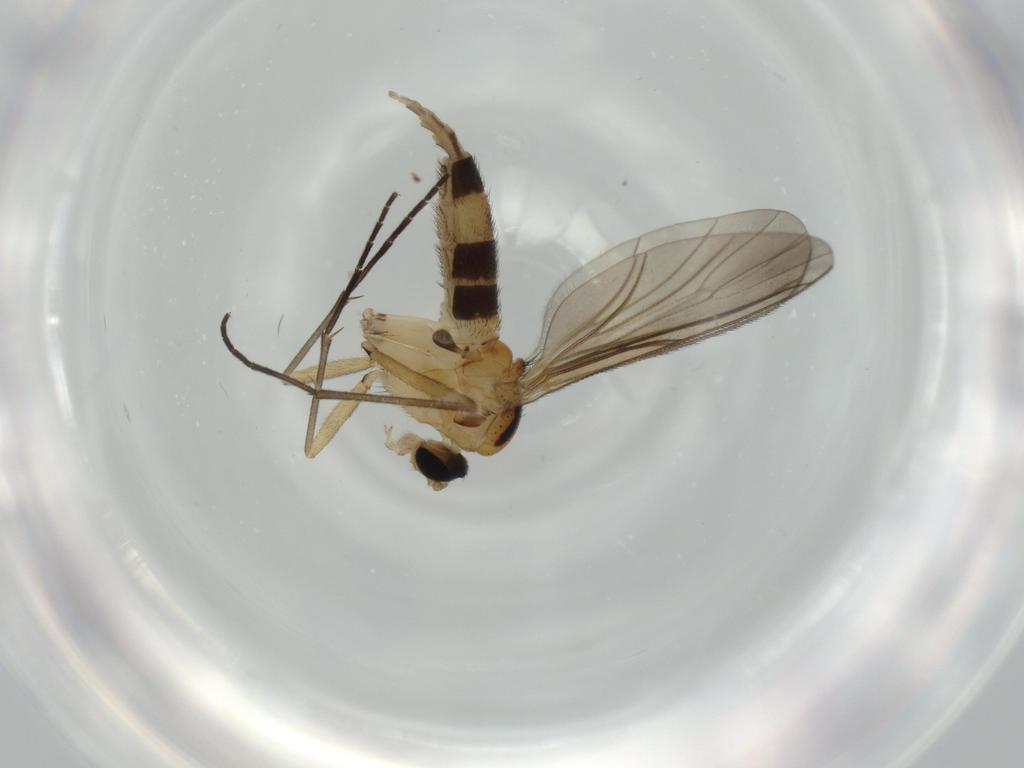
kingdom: Animalia
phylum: Arthropoda
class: Insecta
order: Diptera
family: Sciaridae
